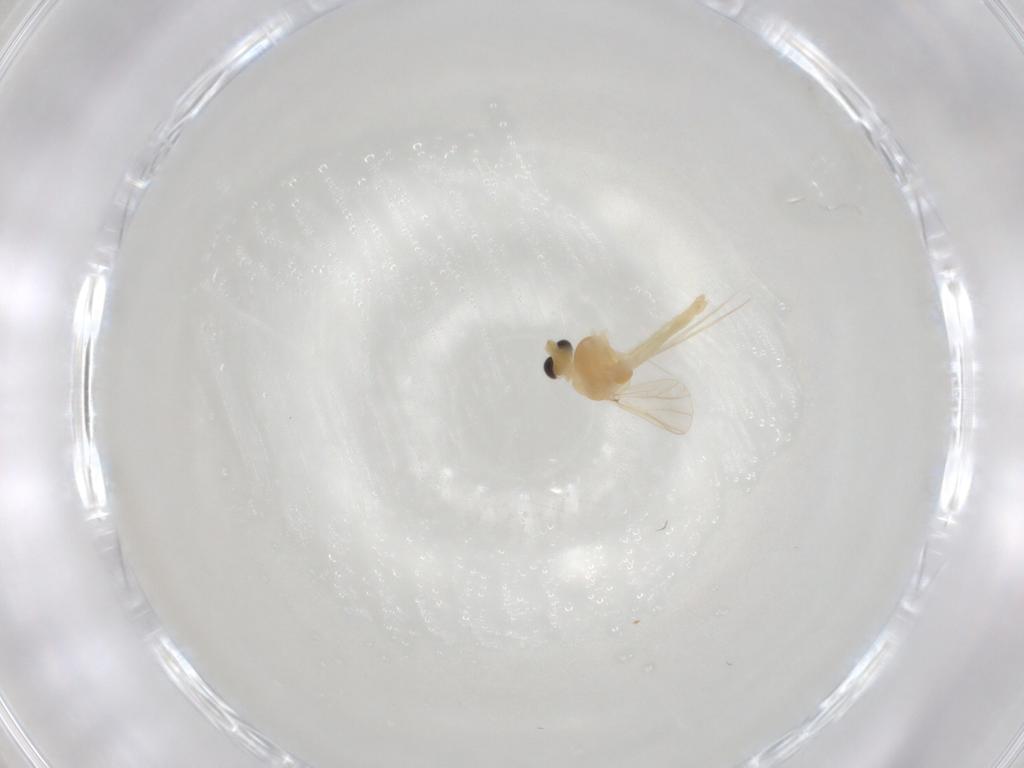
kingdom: Animalia
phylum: Arthropoda
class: Insecta
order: Diptera
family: Chironomidae
